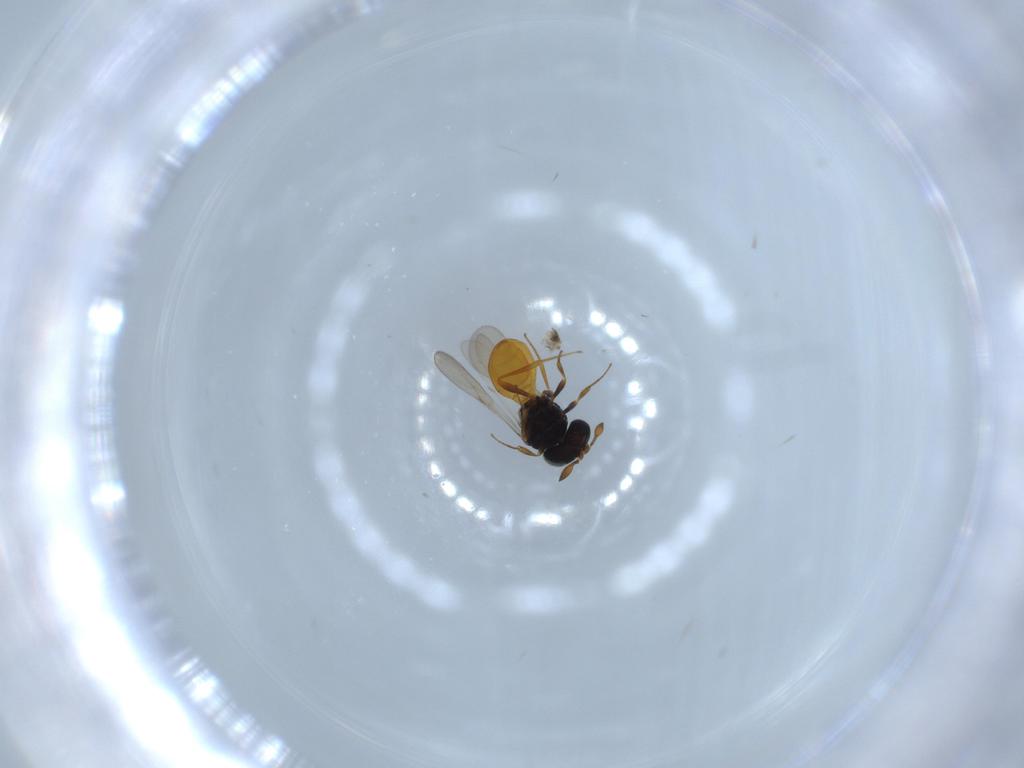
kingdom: Animalia
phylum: Arthropoda
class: Insecta
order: Hymenoptera
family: Scelionidae
